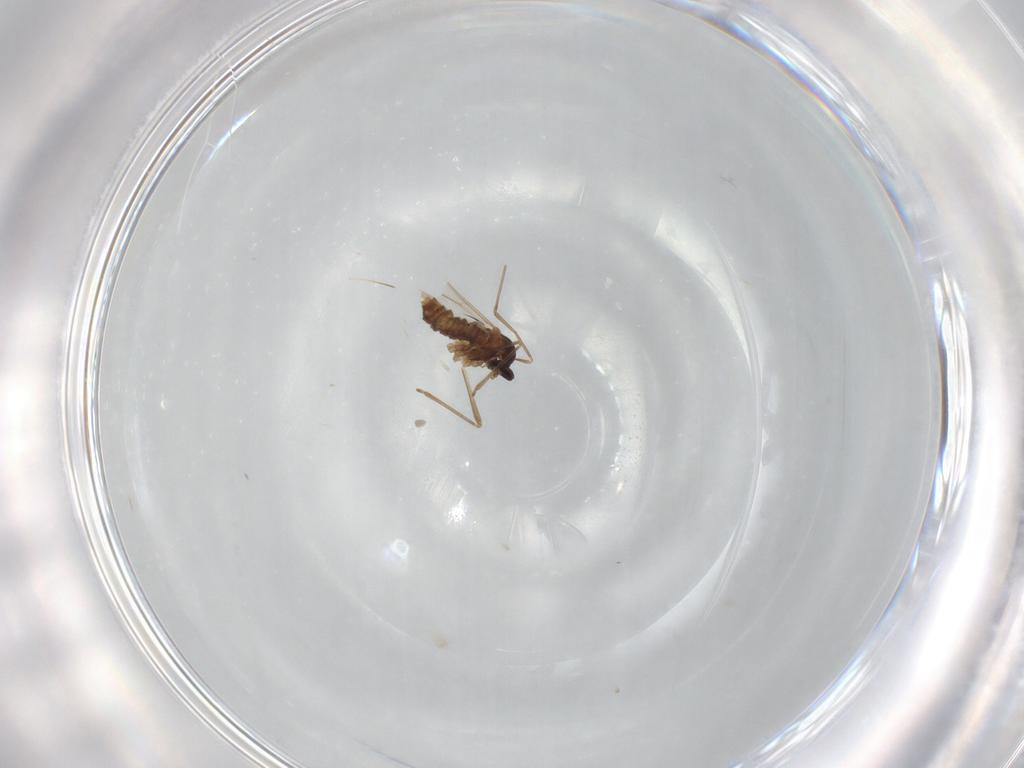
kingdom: Animalia
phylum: Arthropoda
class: Insecta
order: Diptera
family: Cecidomyiidae
